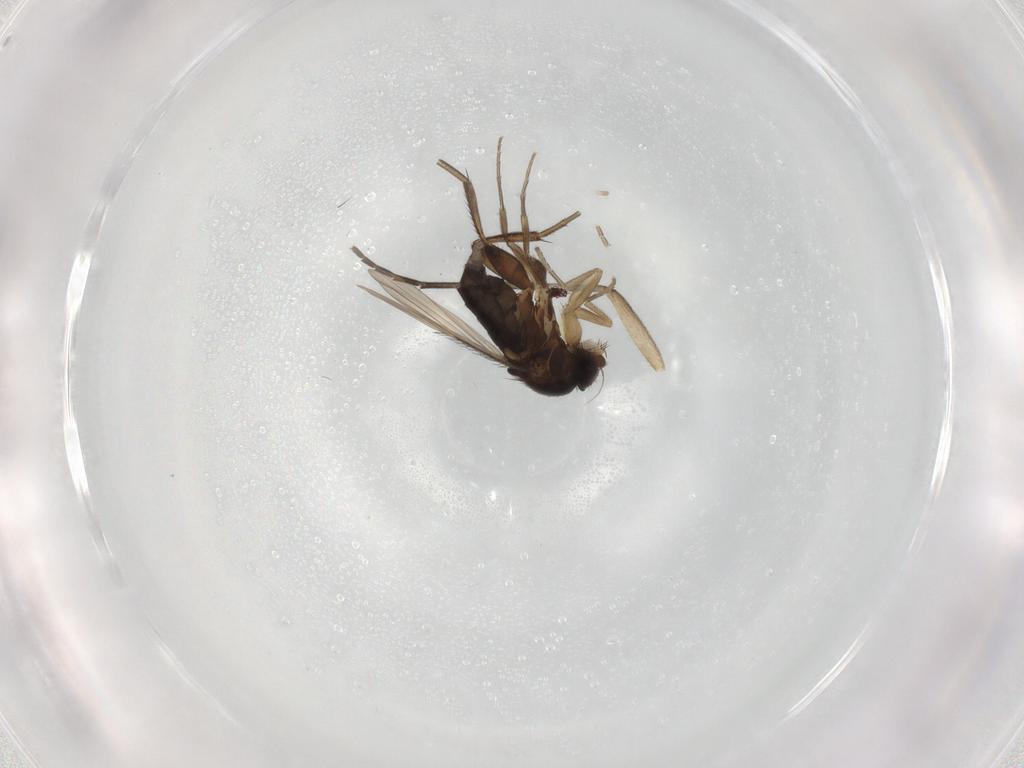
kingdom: Animalia
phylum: Arthropoda
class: Insecta
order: Diptera
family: Phoridae
